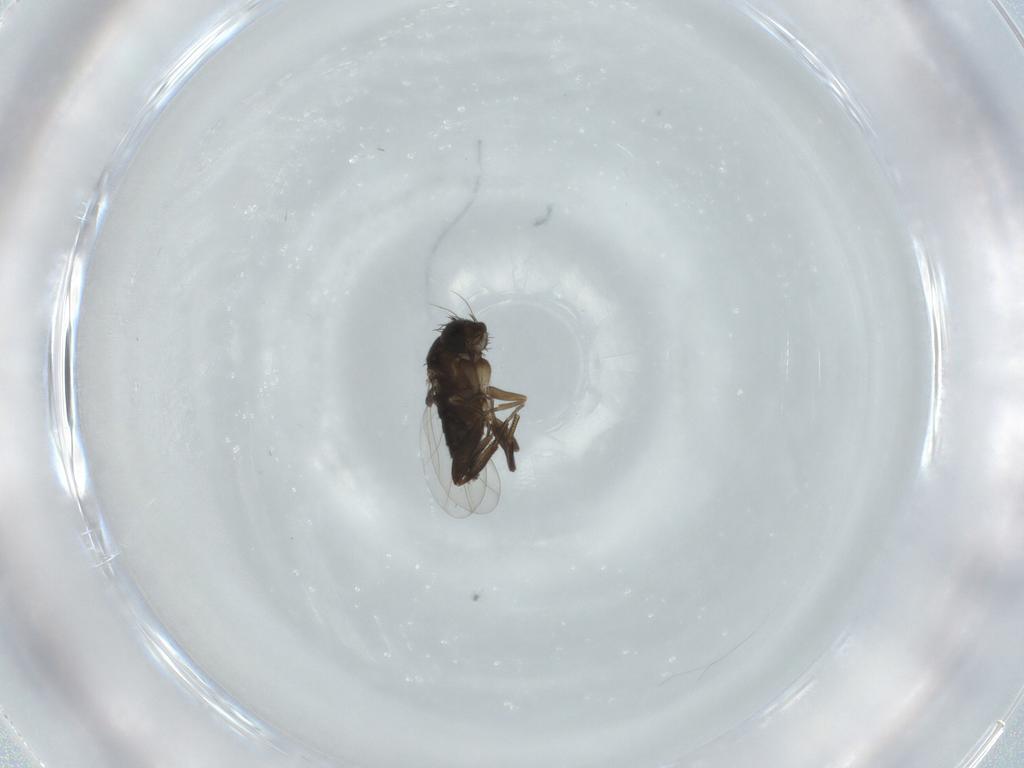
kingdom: Animalia
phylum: Arthropoda
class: Insecta
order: Diptera
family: Phoridae
